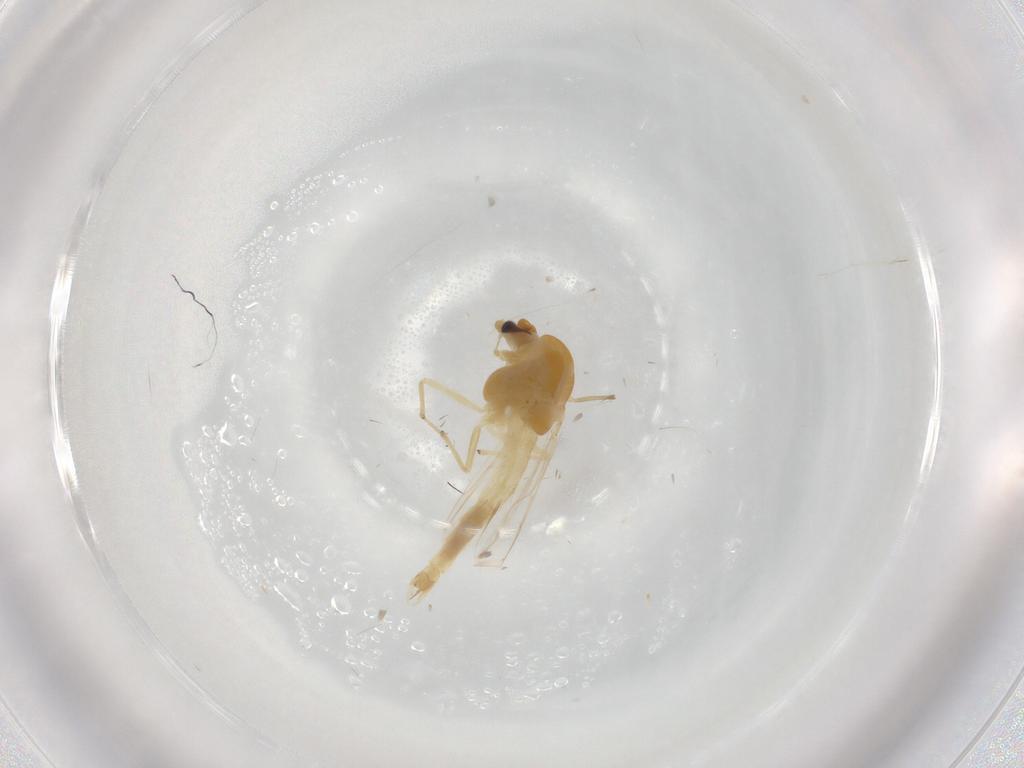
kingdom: Animalia
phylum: Arthropoda
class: Insecta
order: Diptera
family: Chironomidae
